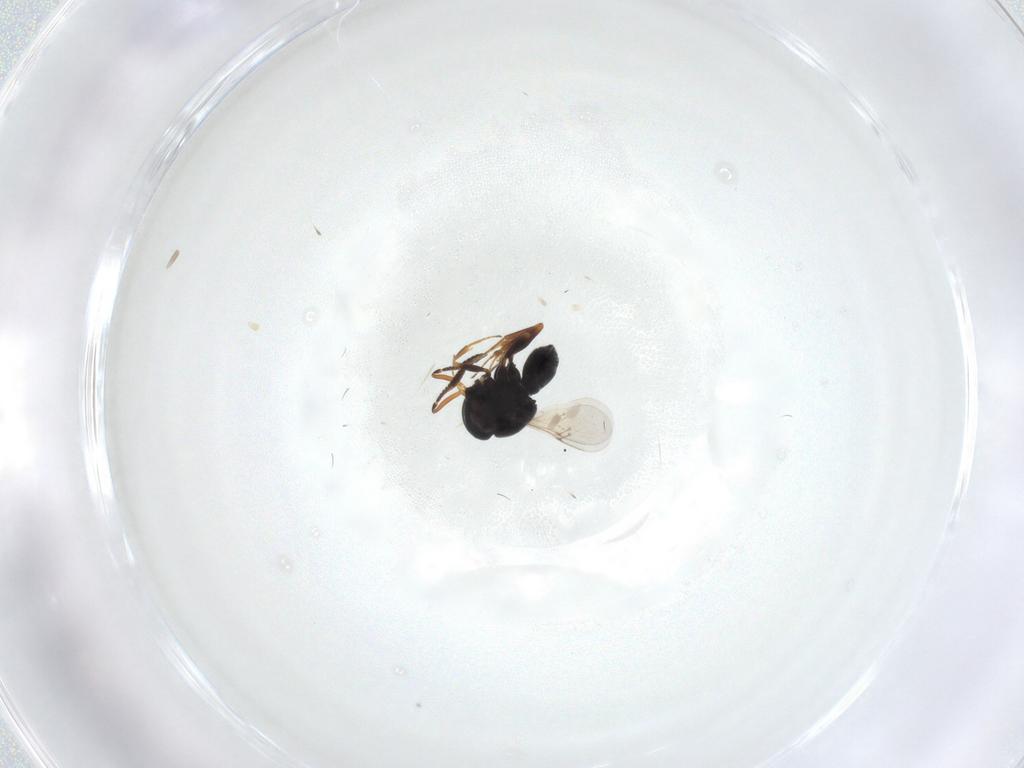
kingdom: Animalia
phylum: Arthropoda
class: Insecta
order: Hymenoptera
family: Scelionidae
